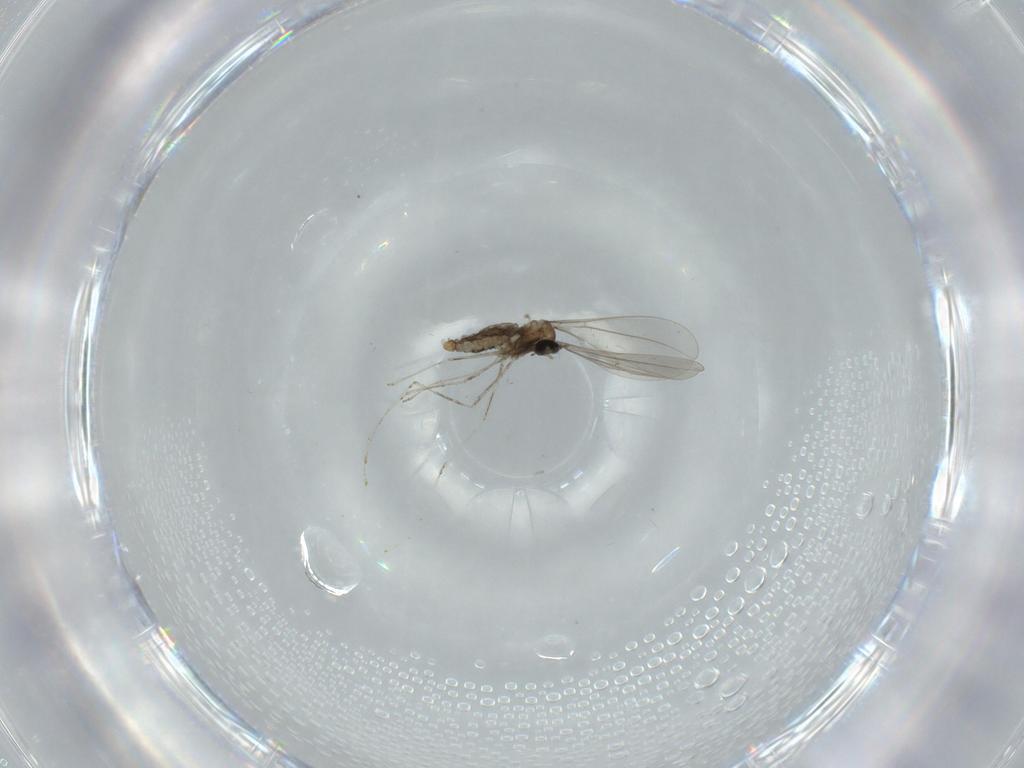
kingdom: Animalia
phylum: Arthropoda
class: Insecta
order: Diptera
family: Cecidomyiidae
